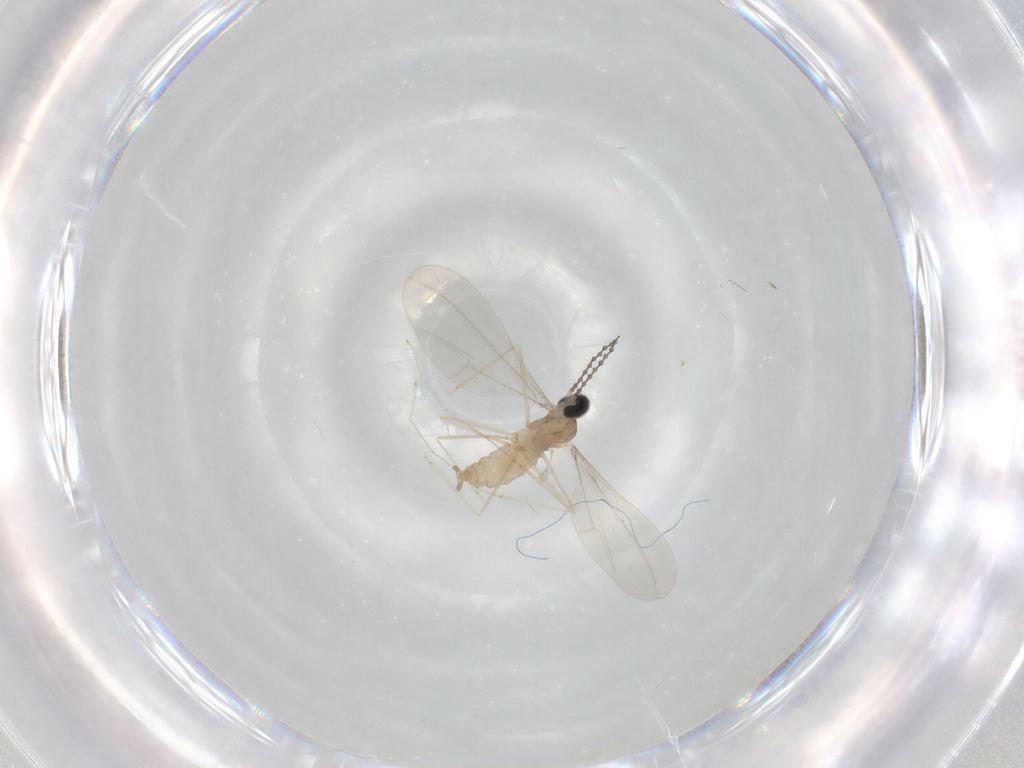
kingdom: Animalia
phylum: Arthropoda
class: Insecta
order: Diptera
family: Cecidomyiidae
